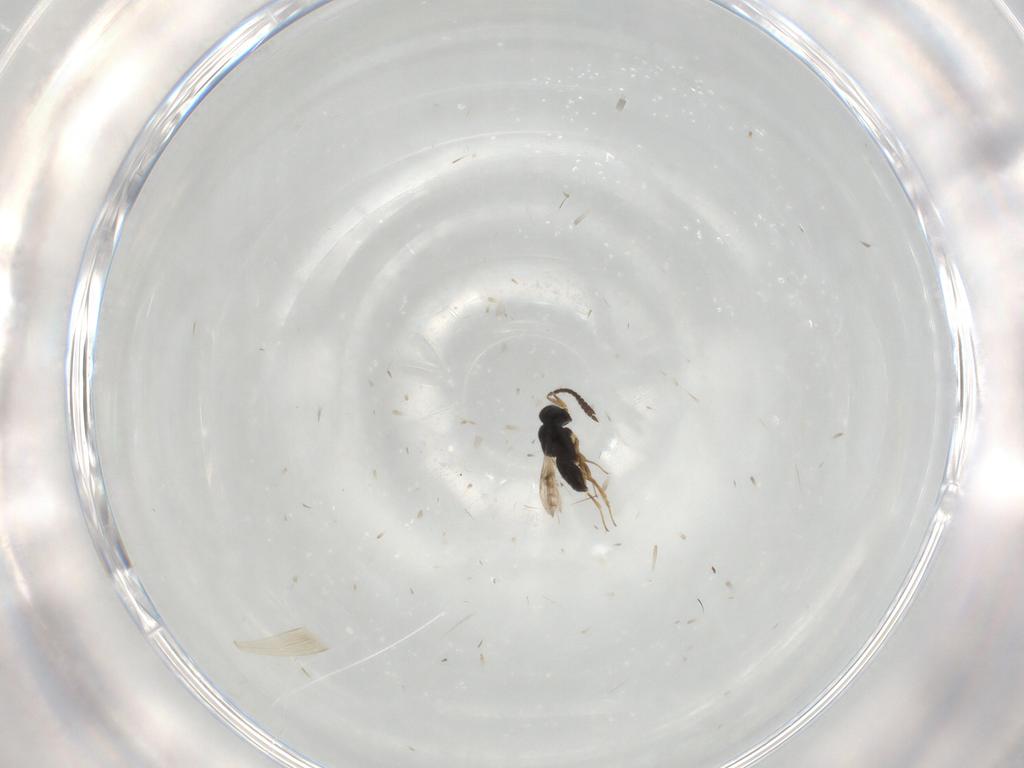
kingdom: Animalia
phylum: Arthropoda
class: Insecta
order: Hymenoptera
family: Scelionidae
